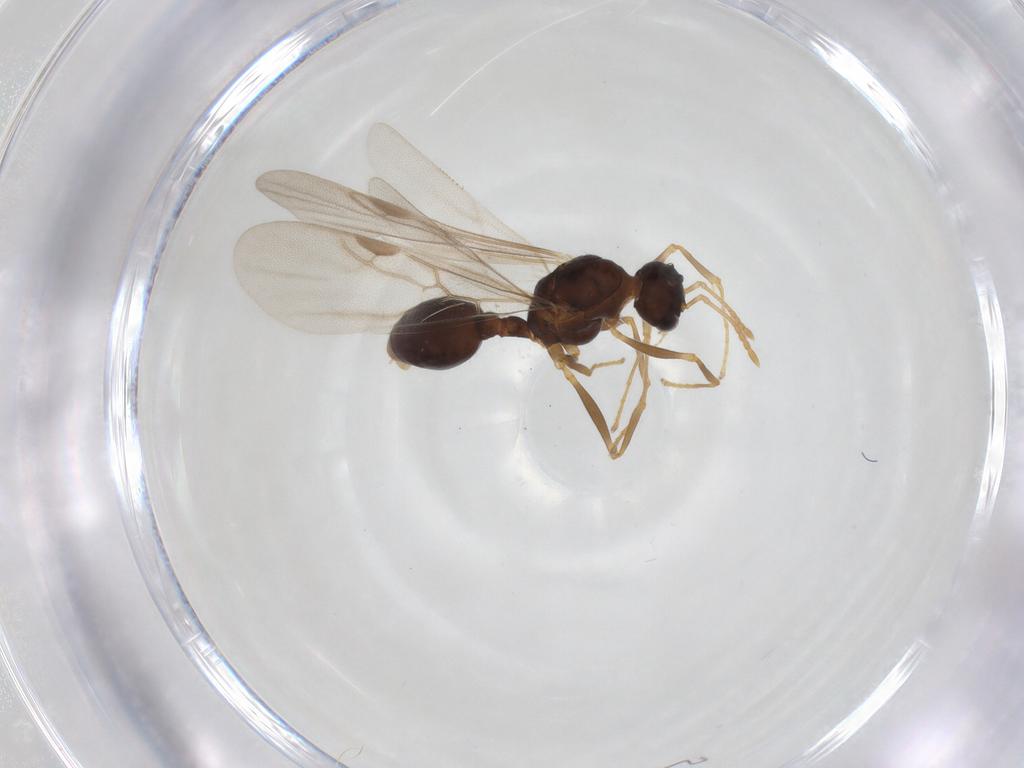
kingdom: Animalia
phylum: Arthropoda
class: Insecta
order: Hymenoptera
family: Formicidae
